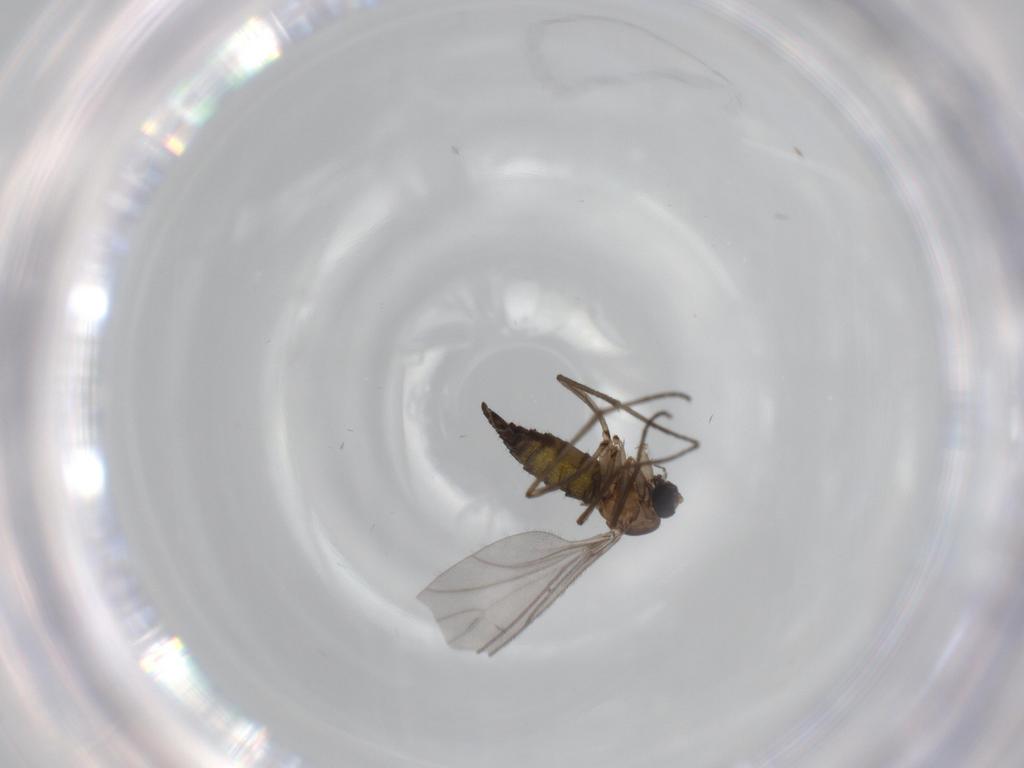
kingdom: Animalia
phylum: Arthropoda
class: Insecta
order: Diptera
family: Sciaridae
